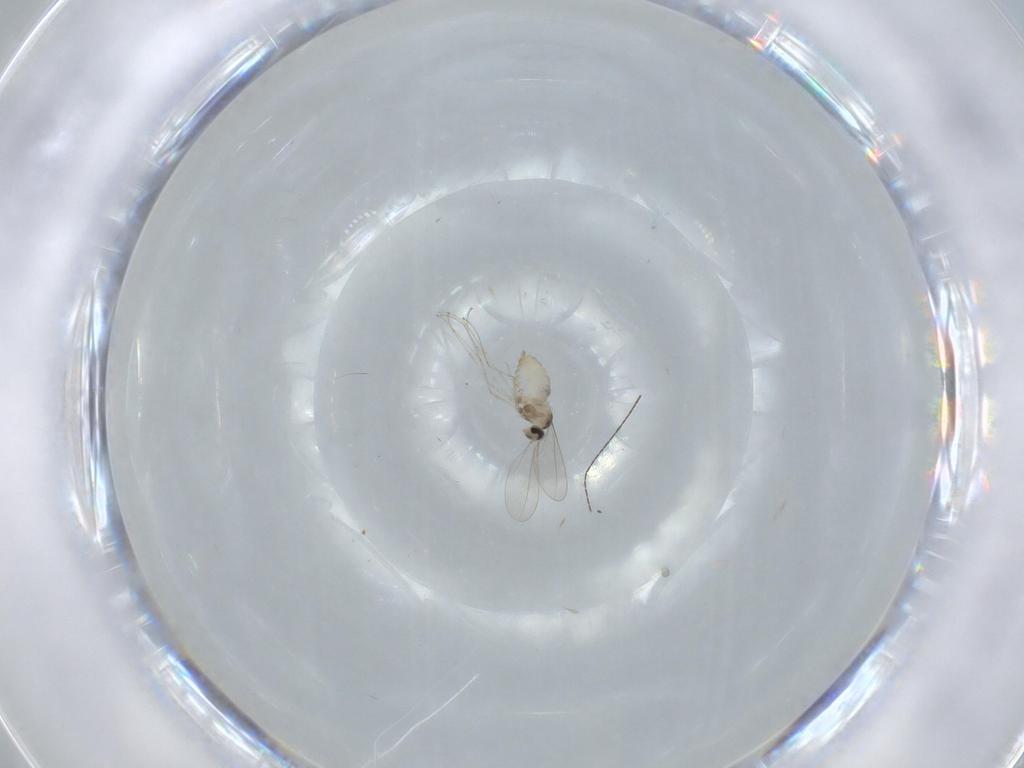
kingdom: Animalia
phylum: Arthropoda
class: Insecta
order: Diptera
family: Cecidomyiidae
